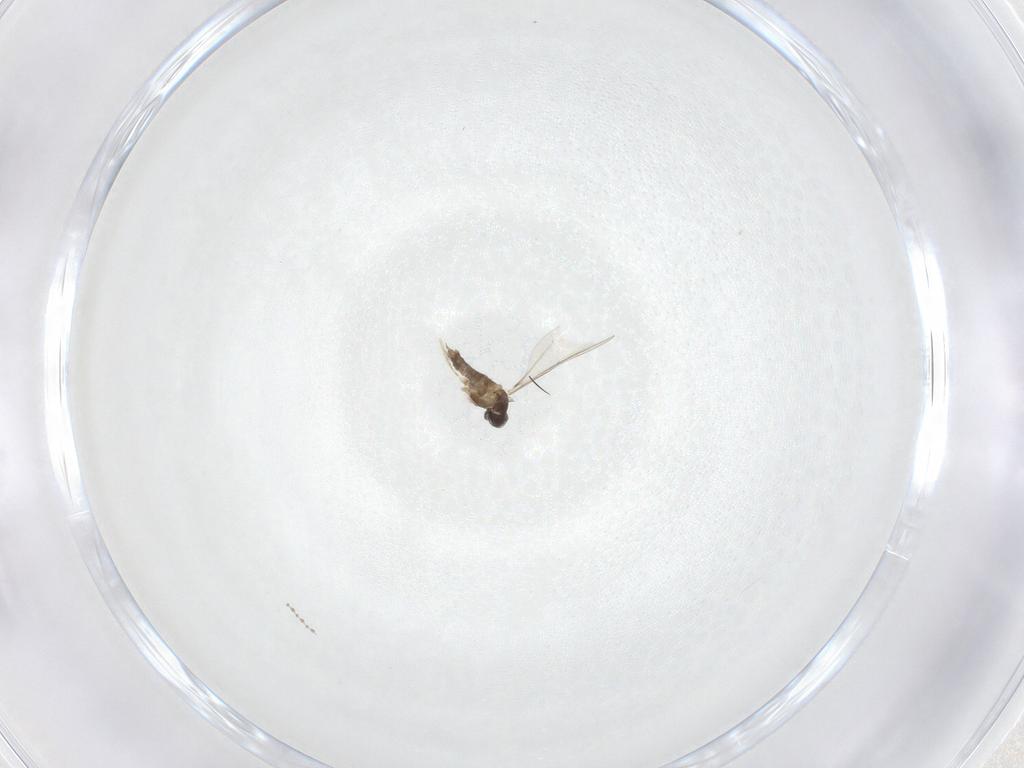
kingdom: Animalia
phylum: Arthropoda
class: Insecta
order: Diptera
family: Cecidomyiidae
